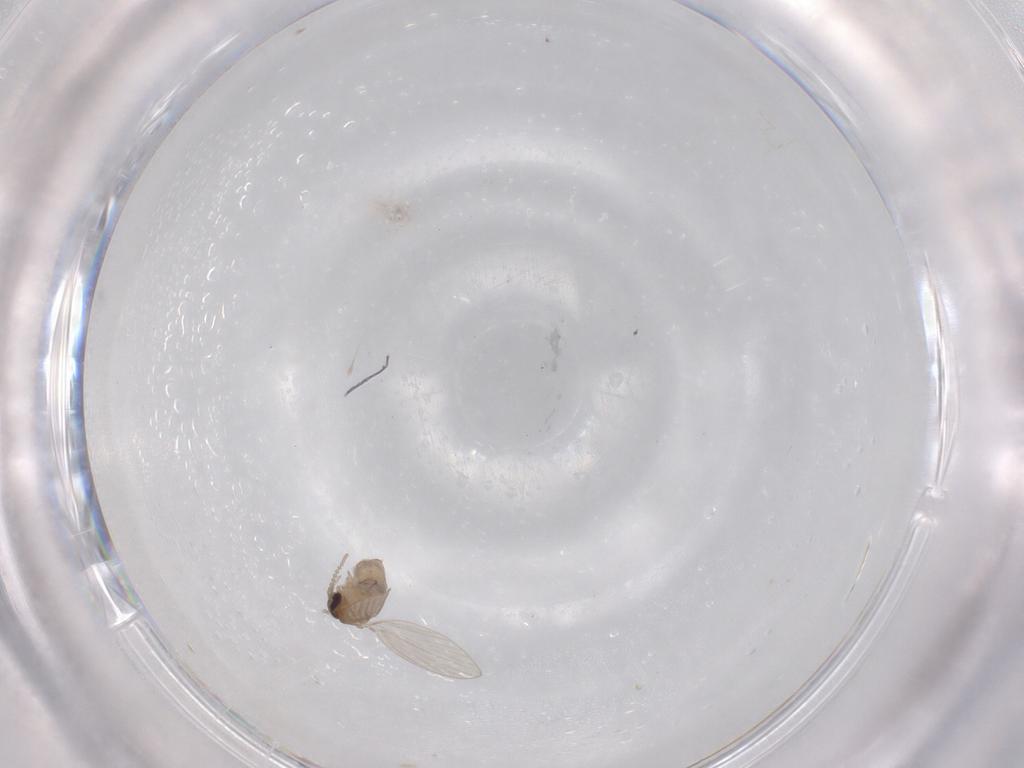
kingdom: Animalia
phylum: Arthropoda
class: Insecta
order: Diptera
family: Psychodidae
